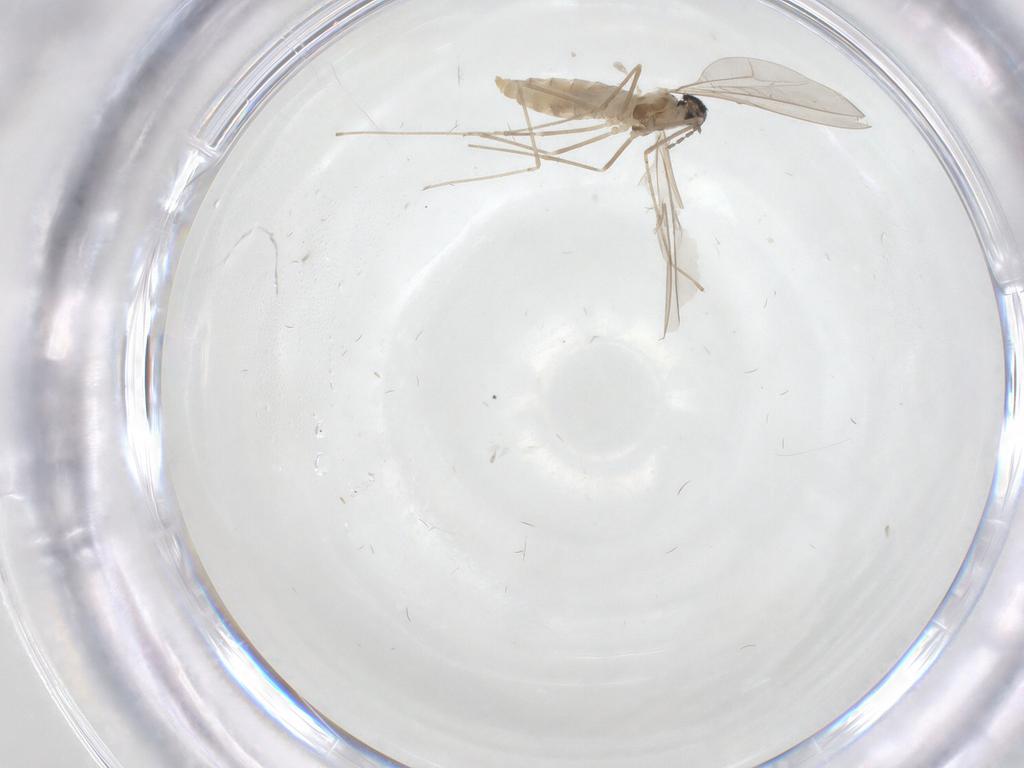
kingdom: Animalia
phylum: Arthropoda
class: Insecta
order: Diptera
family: Cecidomyiidae
